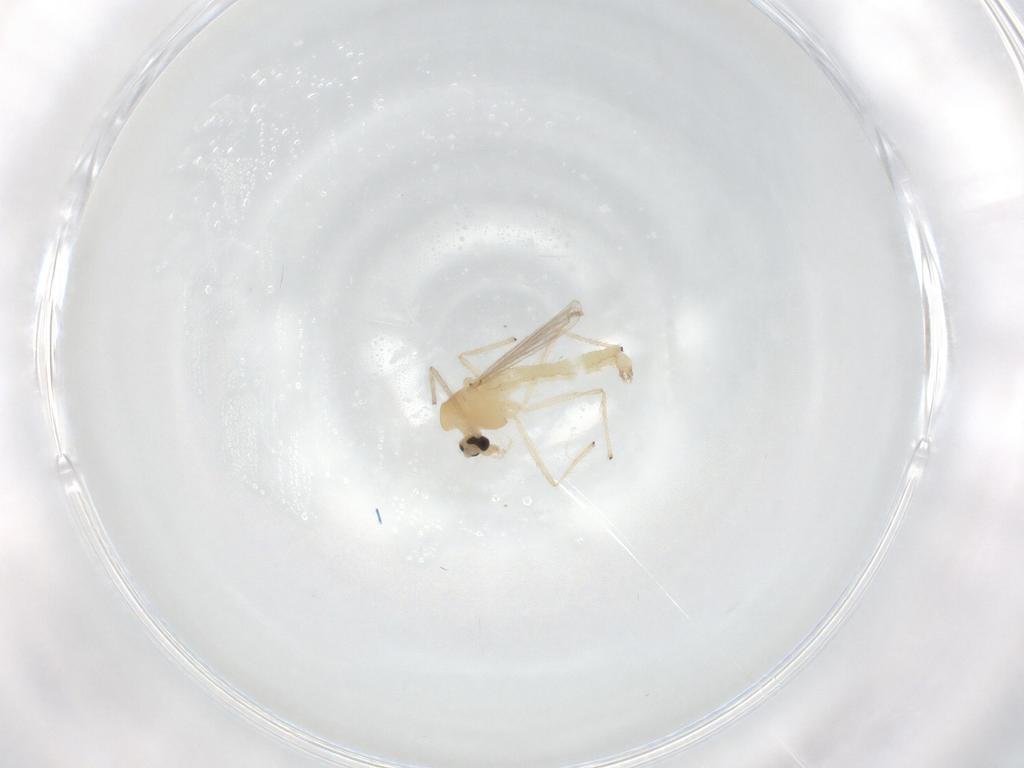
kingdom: Animalia
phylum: Arthropoda
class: Insecta
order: Diptera
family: Chironomidae
